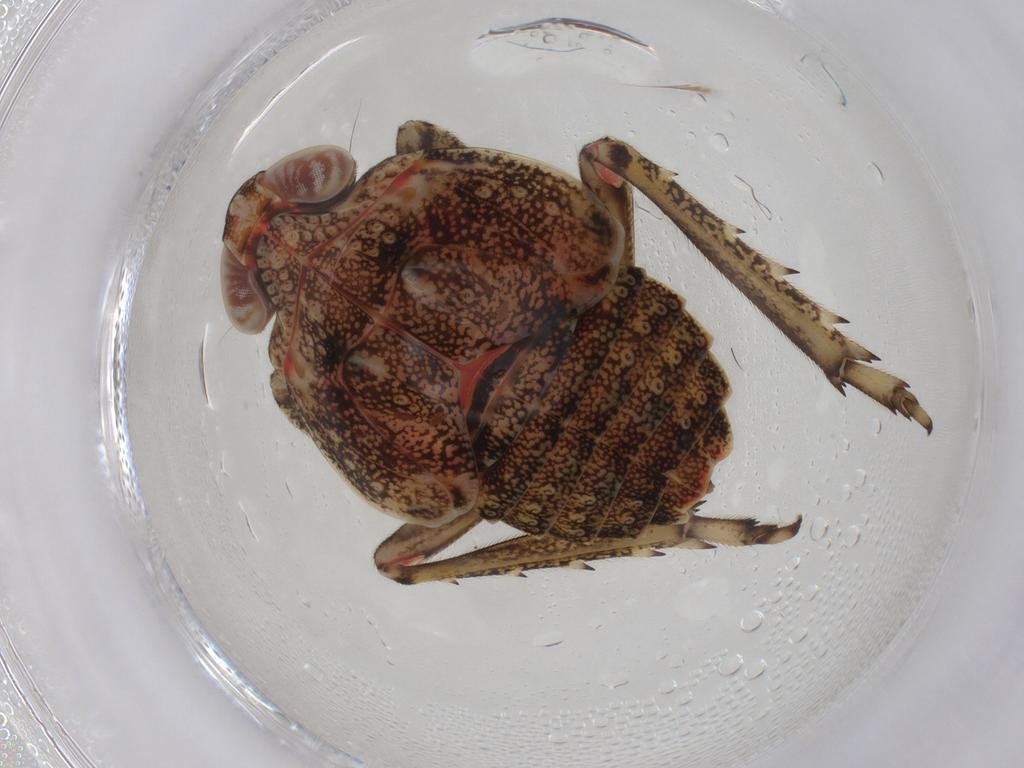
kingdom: Animalia
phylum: Arthropoda
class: Insecta
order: Hemiptera
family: Issidae
